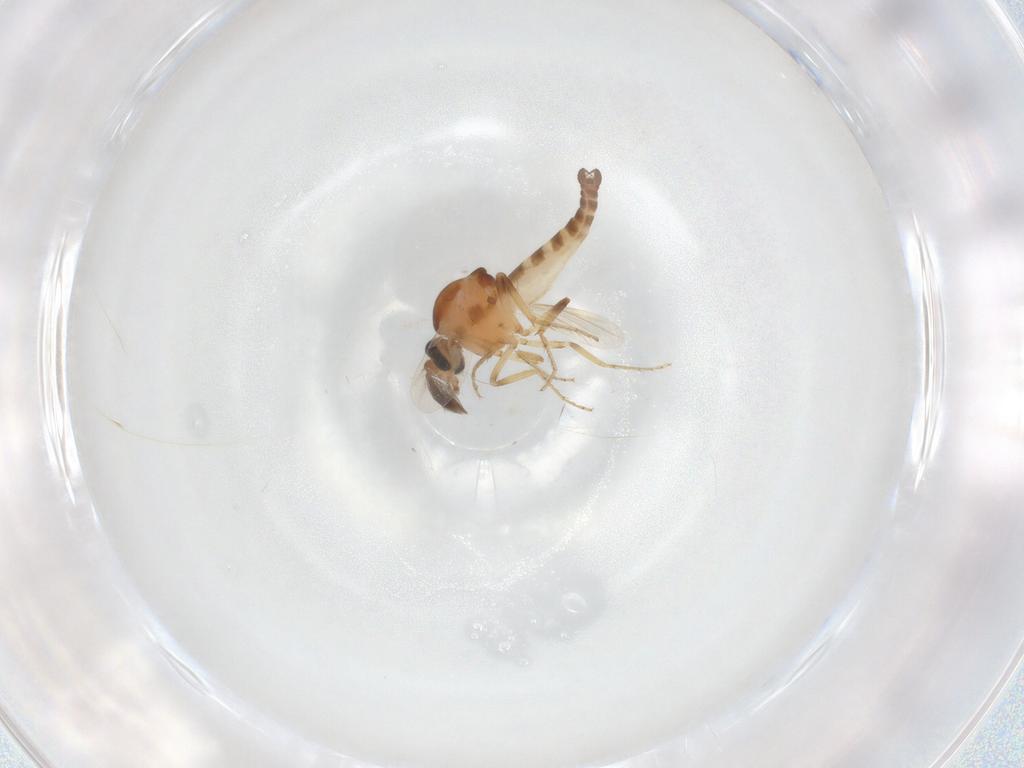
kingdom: Animalia
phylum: Arthropoda
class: Insecta
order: Diptera
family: Ceratopogonidae
